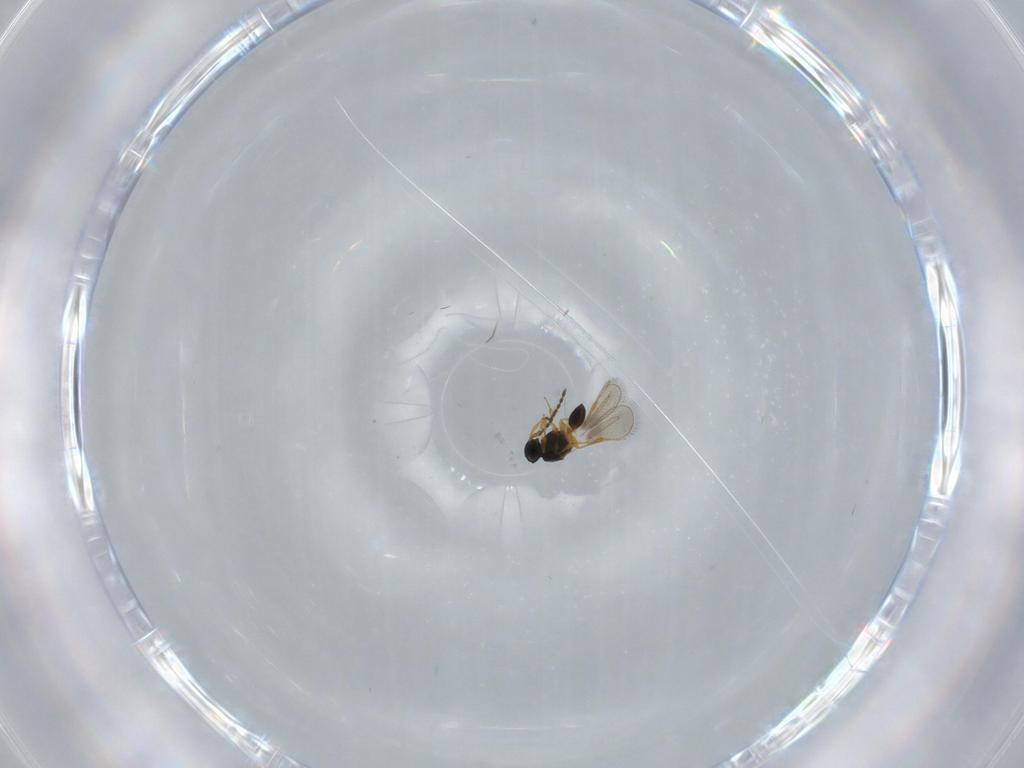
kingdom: Animalia
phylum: Arthropoda
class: Insecta
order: Hymenoptera
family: Platygastridae
